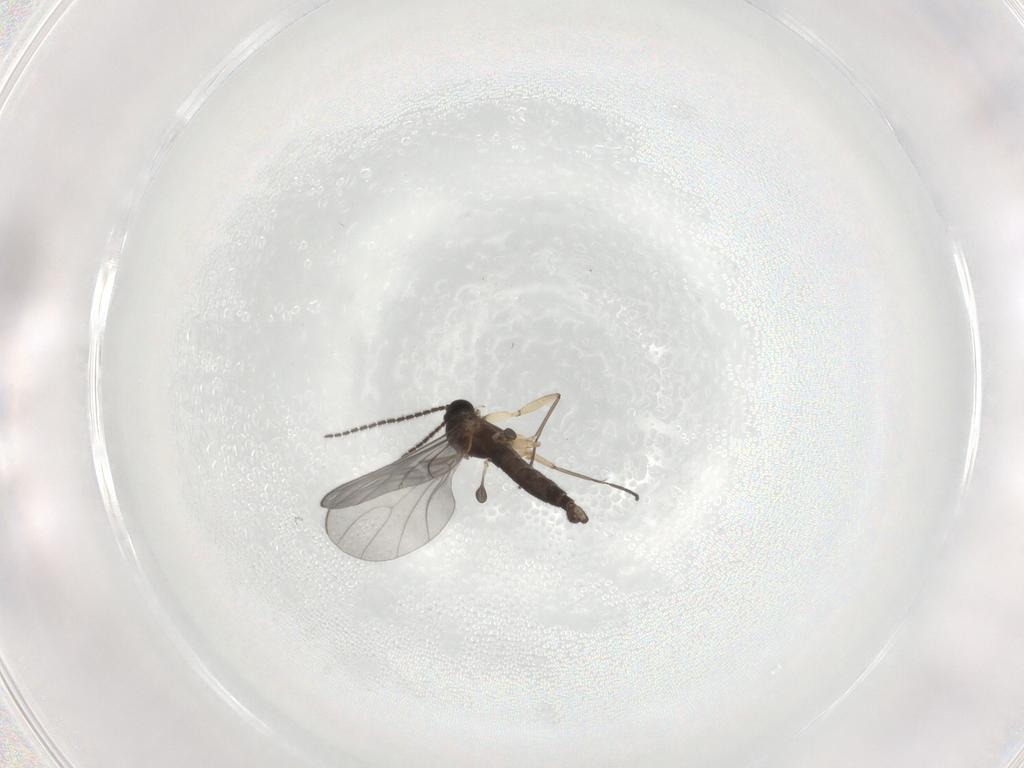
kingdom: Animalia
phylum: Arthropoda
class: Insecta
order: Diptera
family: Sciaridae
